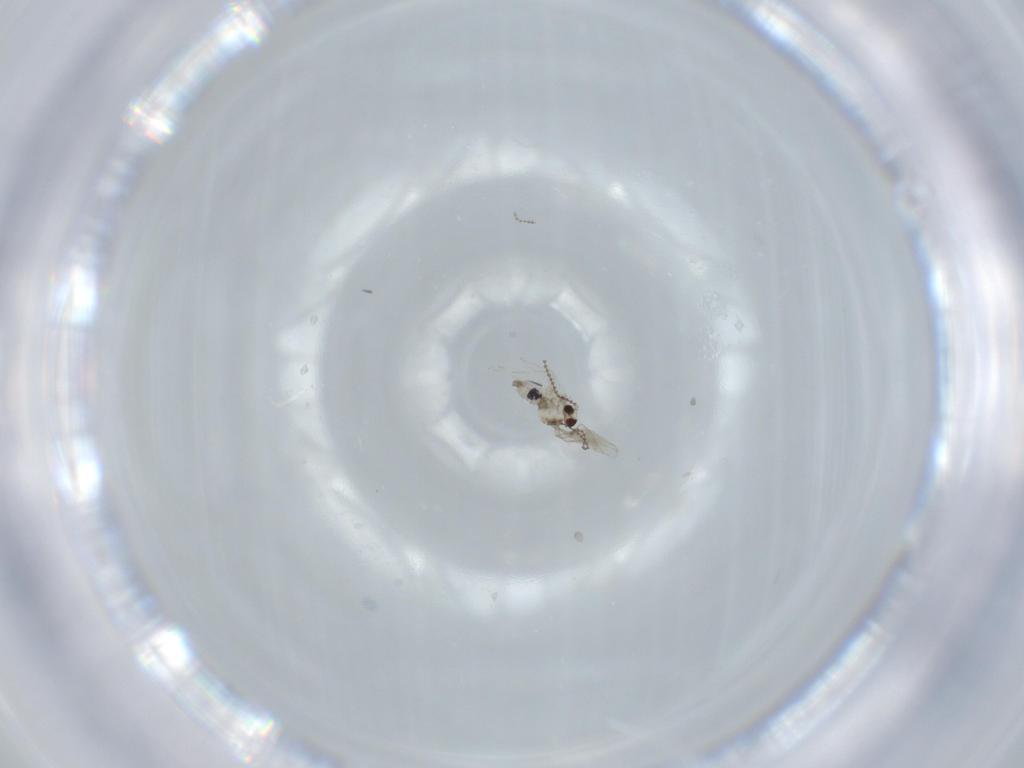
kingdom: Animalia
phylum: Arthropoda
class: Insecta
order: Diptera
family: Cecidomyiidae
